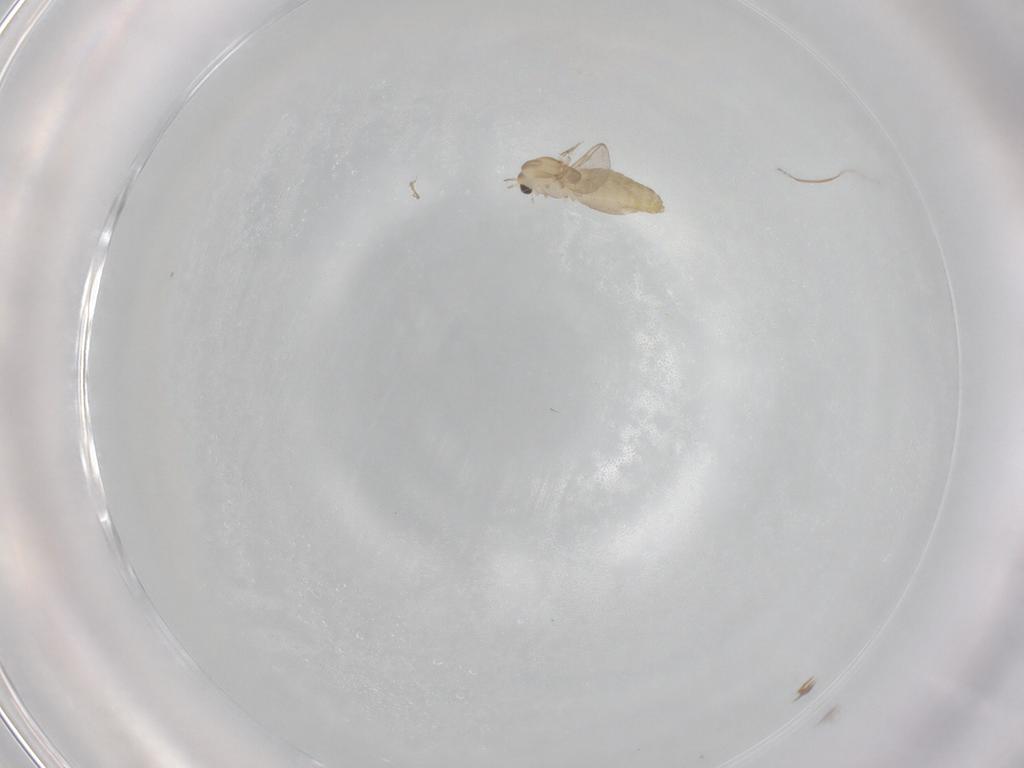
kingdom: Animalia
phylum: Arthropoda
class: Insecta
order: Diptera
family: Chironomidae
